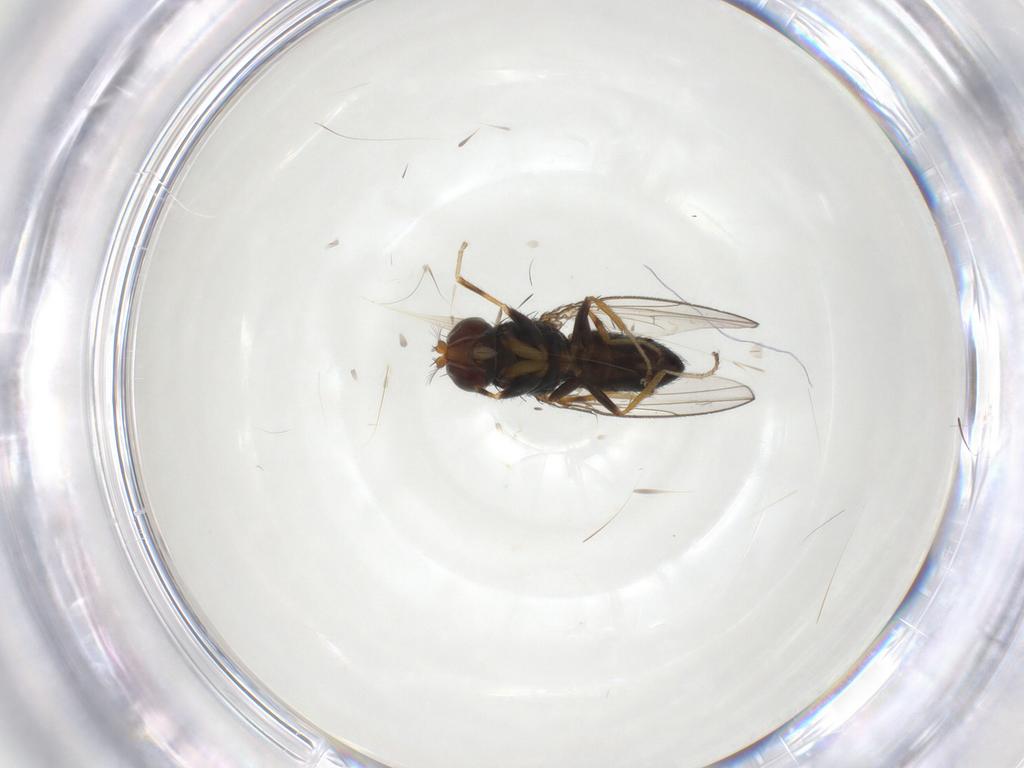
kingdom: Animalia
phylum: Arthropoda
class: Insecta
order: Diptera
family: Ephydridae
